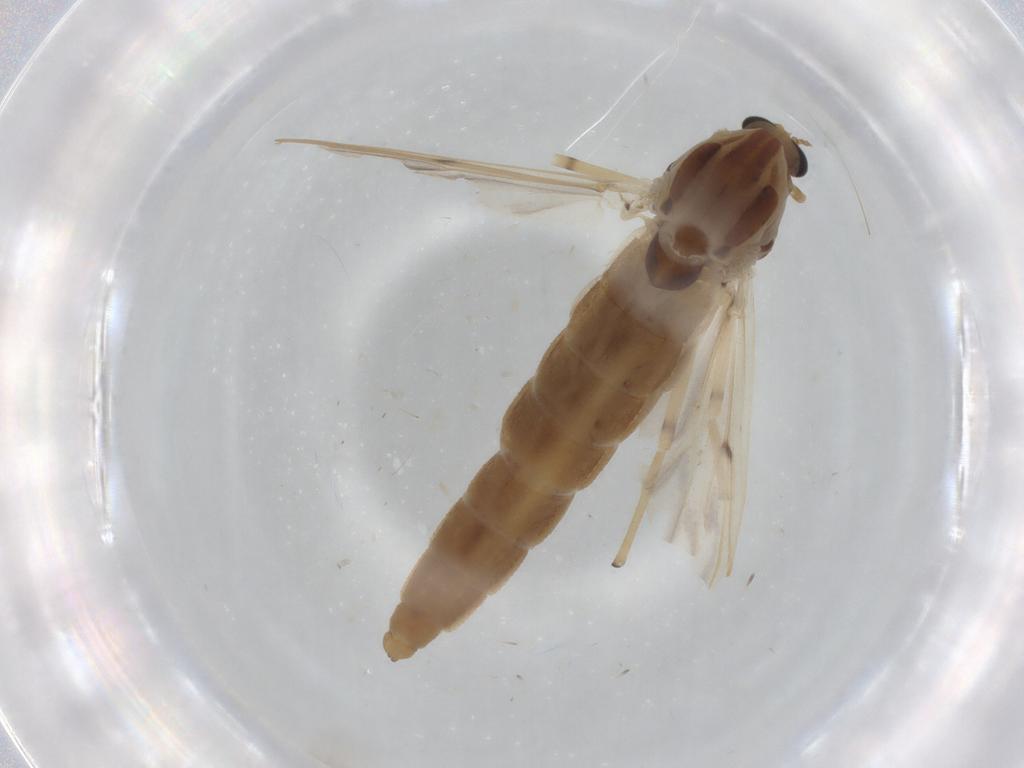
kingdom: Animalia
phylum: Arthropoda
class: Insecta
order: Diptera
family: Chironomidae
